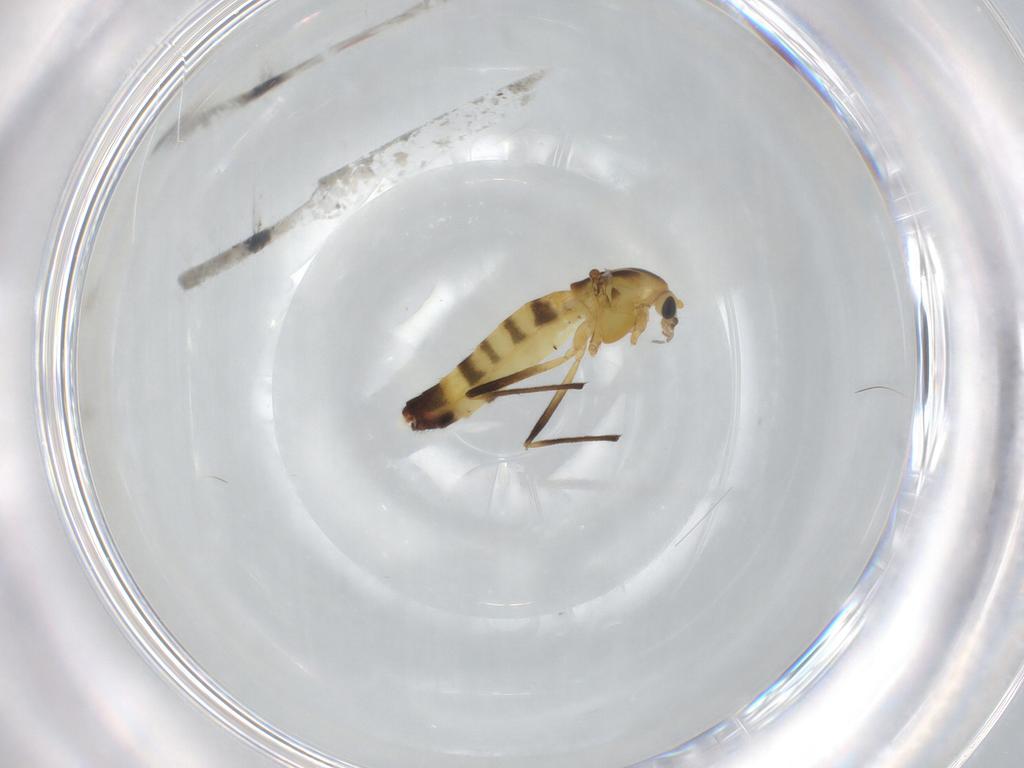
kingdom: Animalia
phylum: Arthropoda
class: Insecta
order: Diptera
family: Chironomidae
